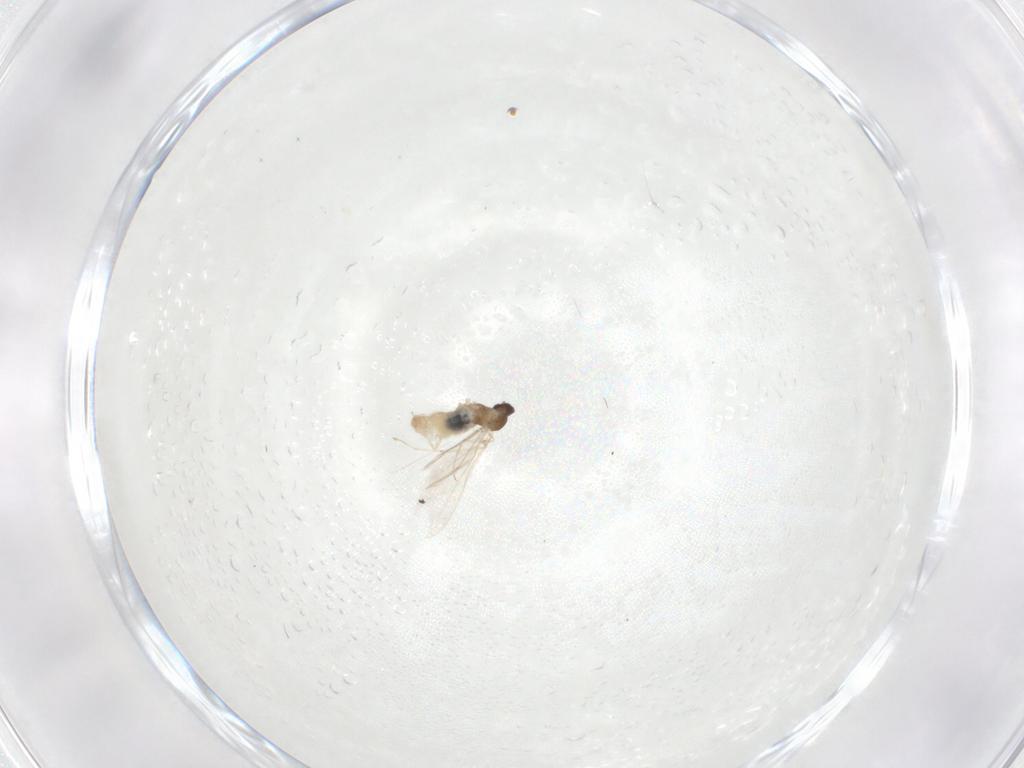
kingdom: Animalia
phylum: Arthropoda
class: Insecta
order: Diptera
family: Cecidomyiidae
